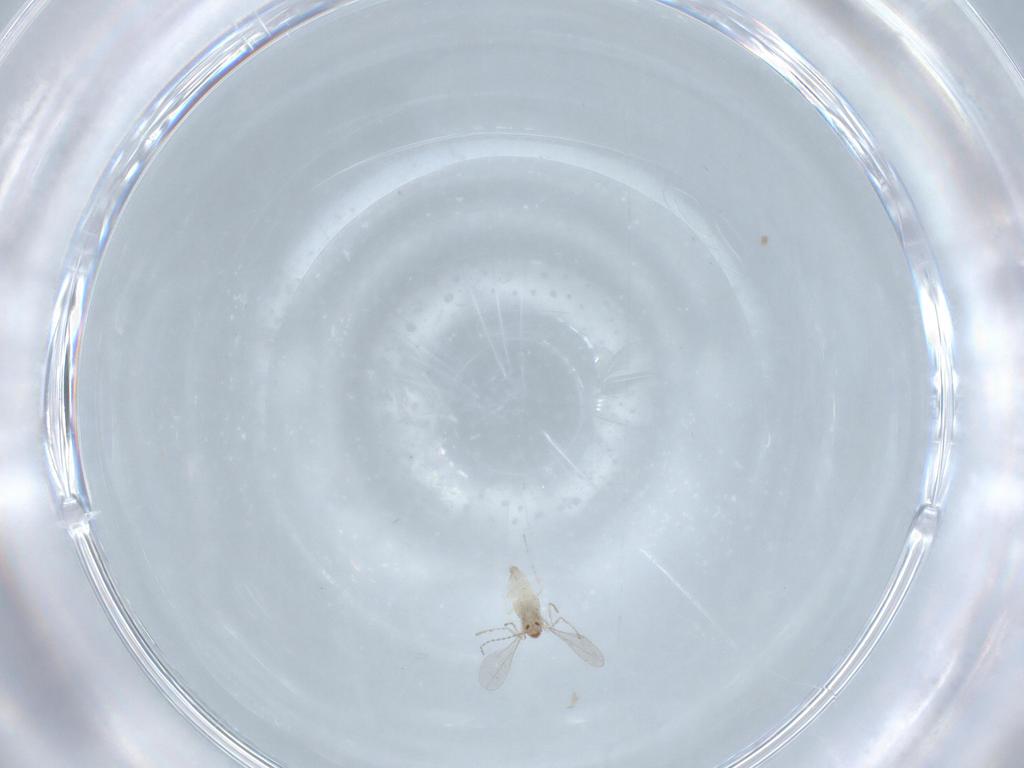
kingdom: Animalia
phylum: Arthropoda
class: Insecta
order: Diptera
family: Cecidomyiidae
